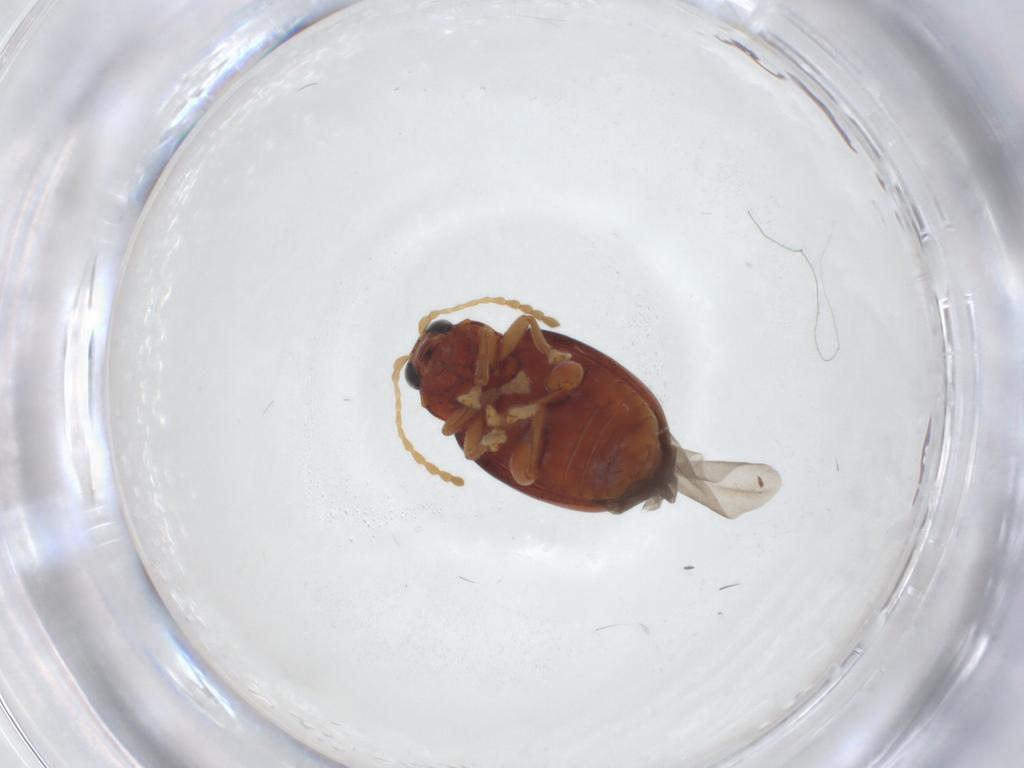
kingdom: Animalia
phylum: Arthropoda
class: Insecta
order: Coleoptera
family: Chrysomelidae
